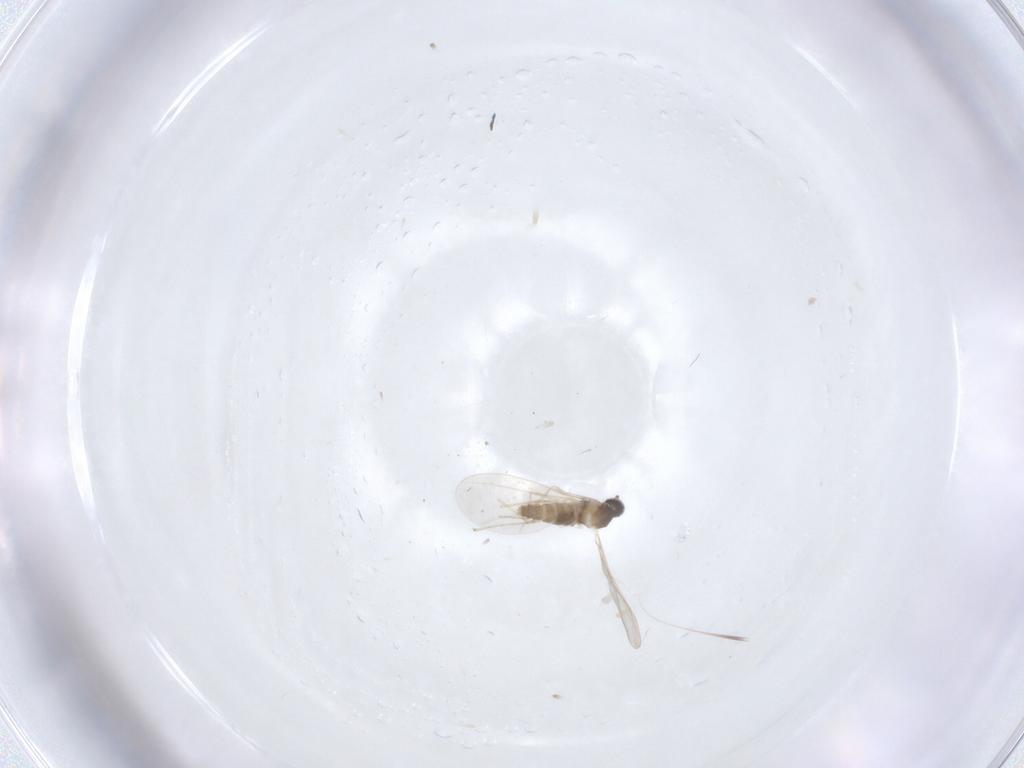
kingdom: Animalia
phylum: Arthropoda
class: Insecta
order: Diptera
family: Cecidomyiidae
